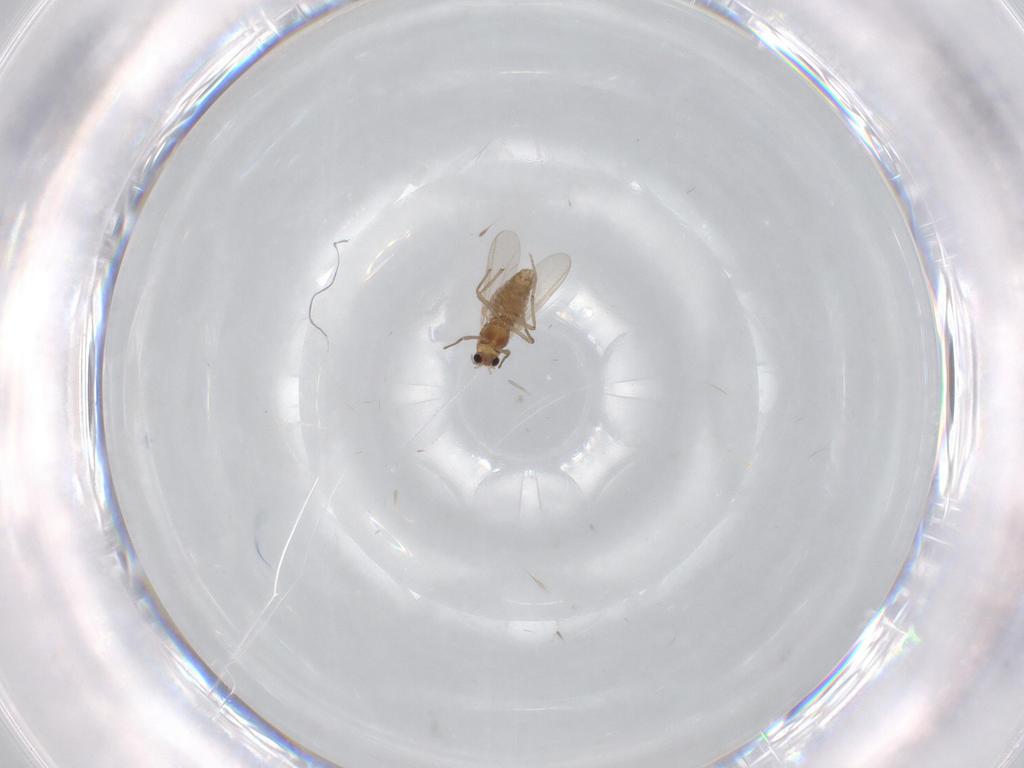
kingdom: Animalia
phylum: Arthropoda
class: Insecta
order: Diptera
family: Chironomidae
